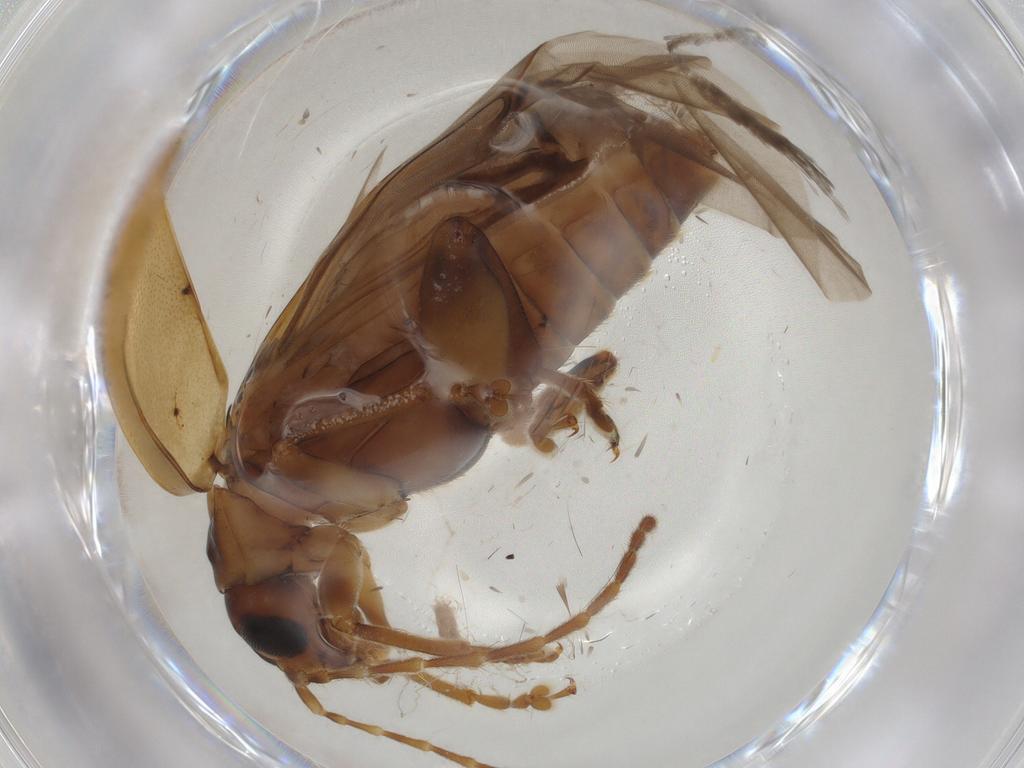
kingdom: Animalia
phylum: Arthropoda
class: Insecta
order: Coleoptera
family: Chrysomelidae
